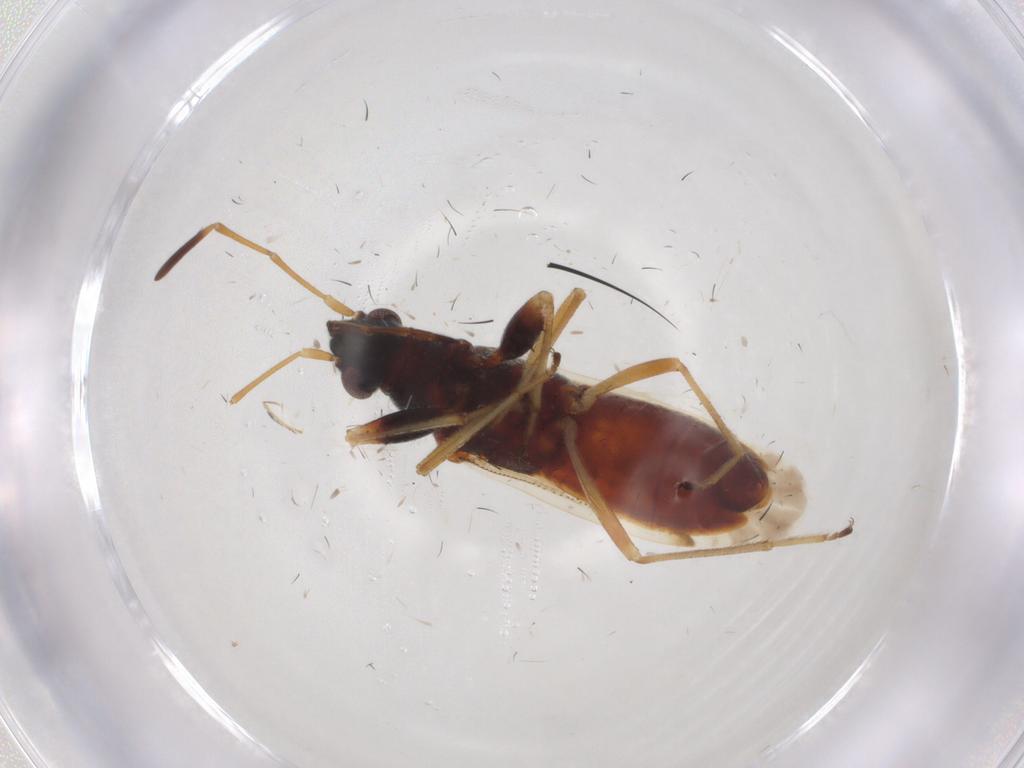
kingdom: Animalia
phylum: Arthropoda
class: Insecta
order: Hemiptera
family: Rhyparochromidae
